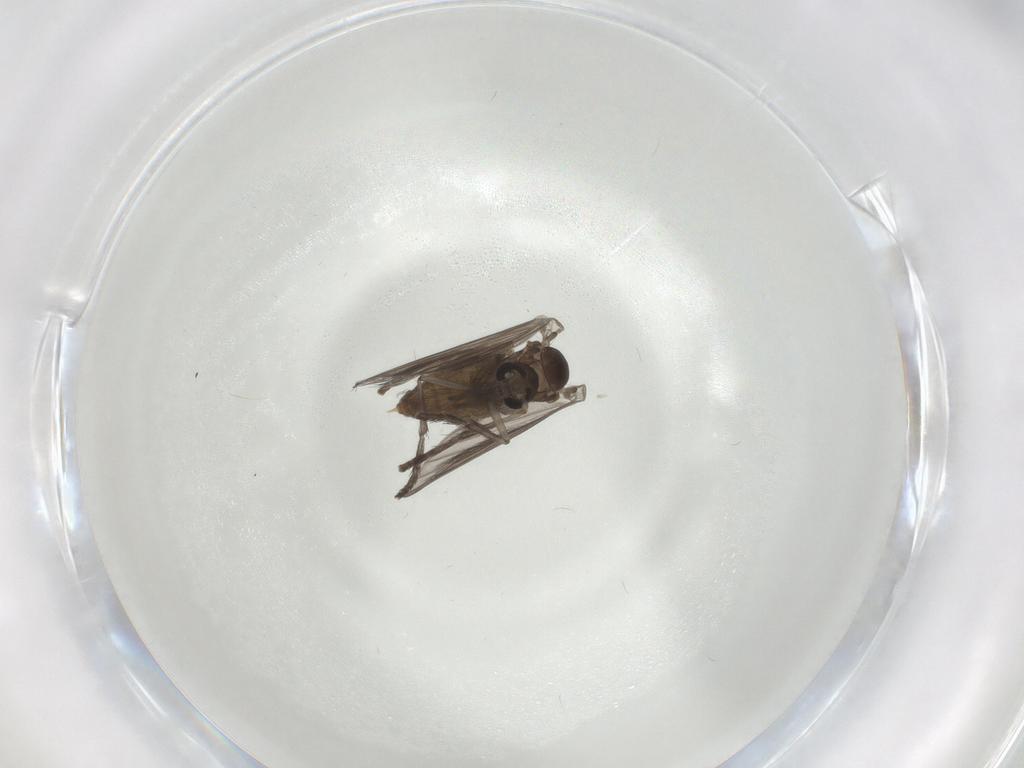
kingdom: Animalia
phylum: Arthropoda
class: Insecta
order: Diptera
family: Psychodidae
